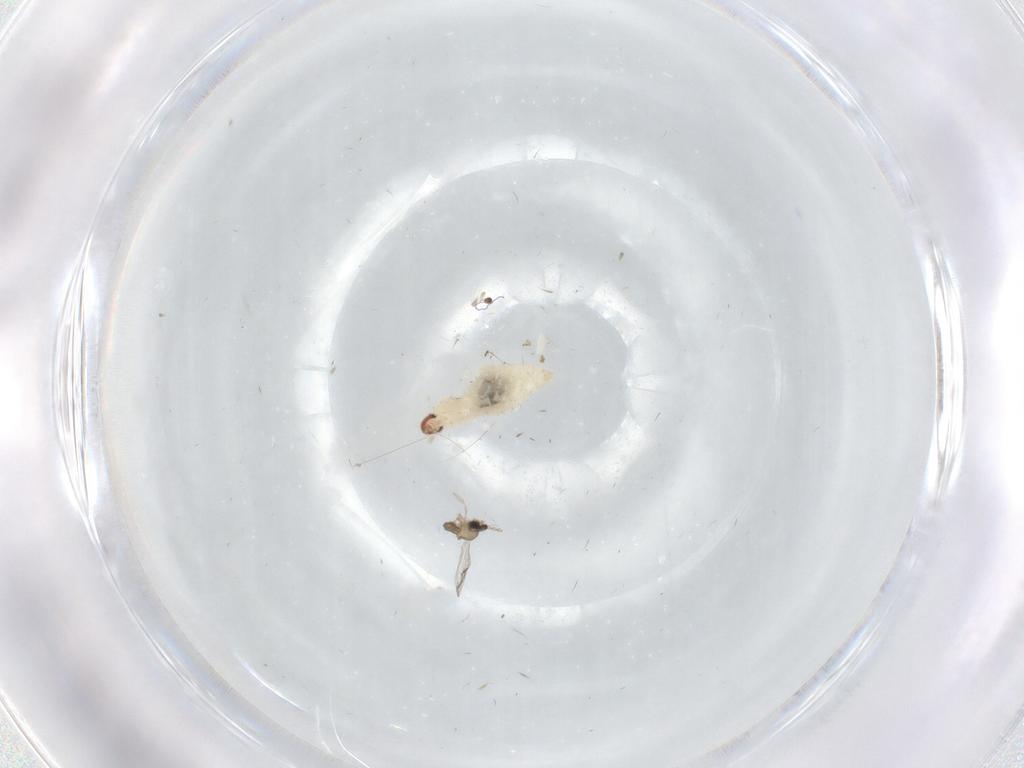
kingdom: Animalia
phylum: Arthropoda
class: Insecta
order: Diptera
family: Cecidomyiidae
